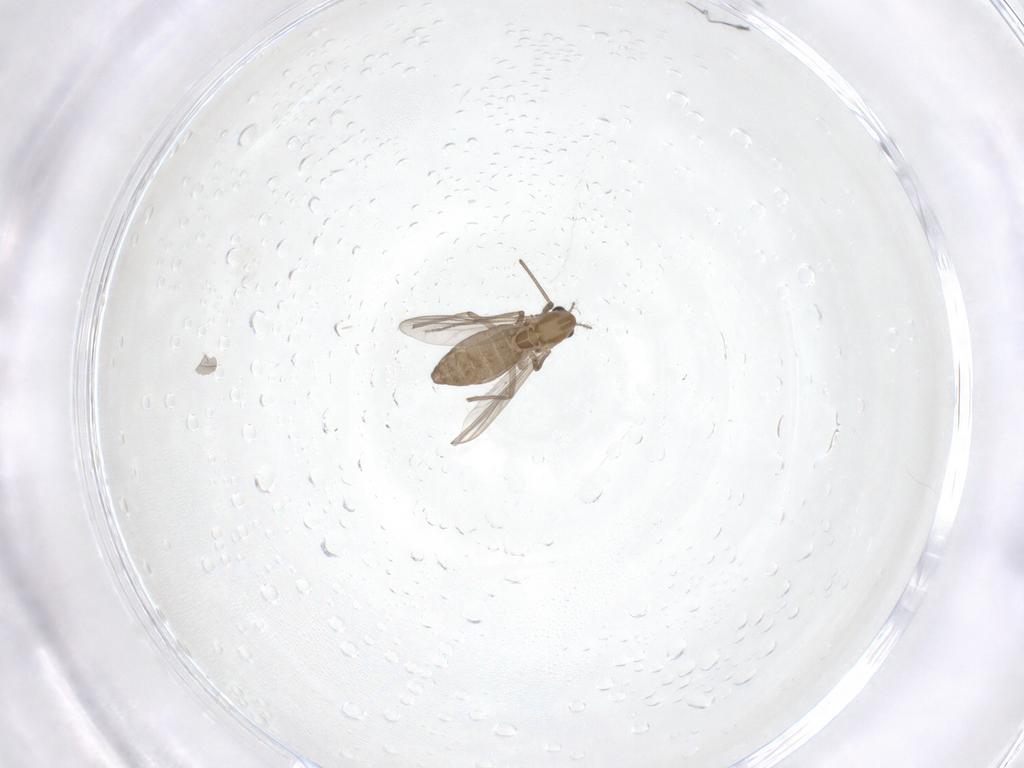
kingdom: Animalia
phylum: Arthropoda
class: Insecta
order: Diptera
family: Chironomidae
